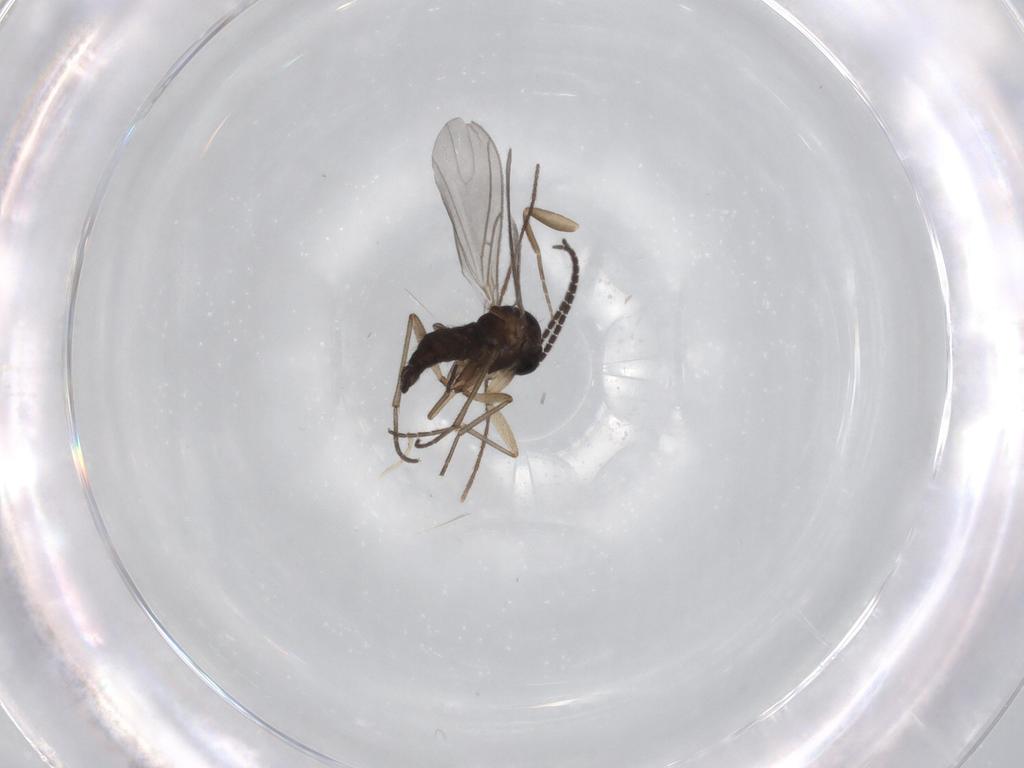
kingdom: Animalia
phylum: Arthropoda
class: Insecta
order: Diptera
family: Sciaridae
